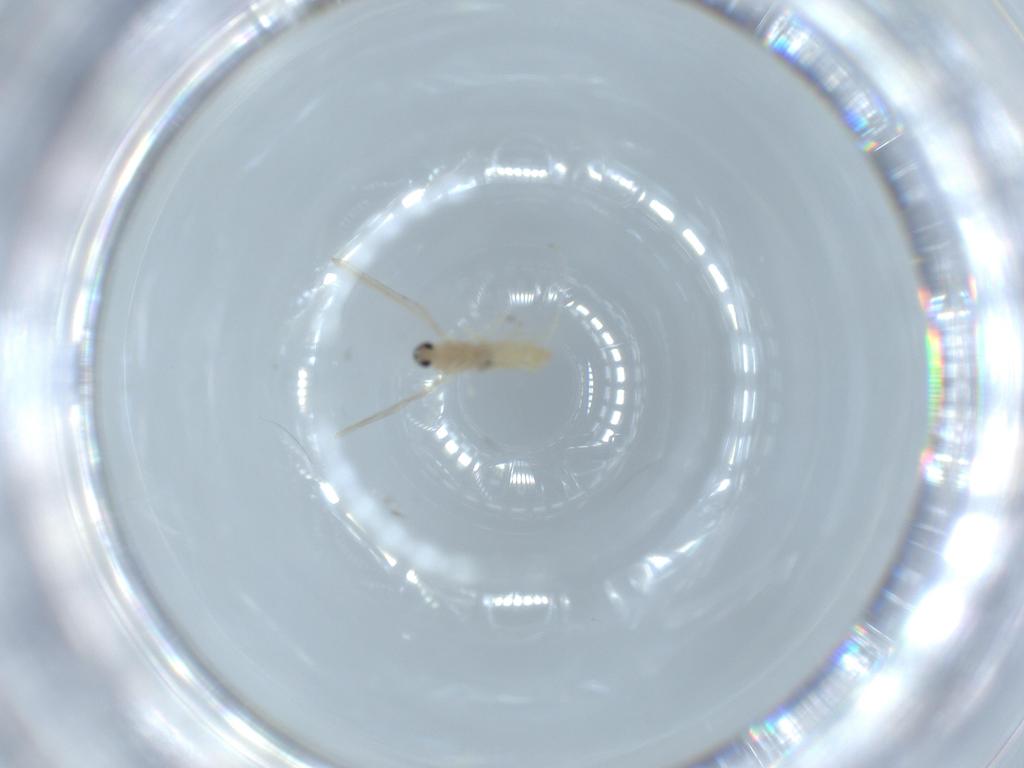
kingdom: Animalia
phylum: Arthropoda
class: Insecta
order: Diptera
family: Cecidomyiidae
